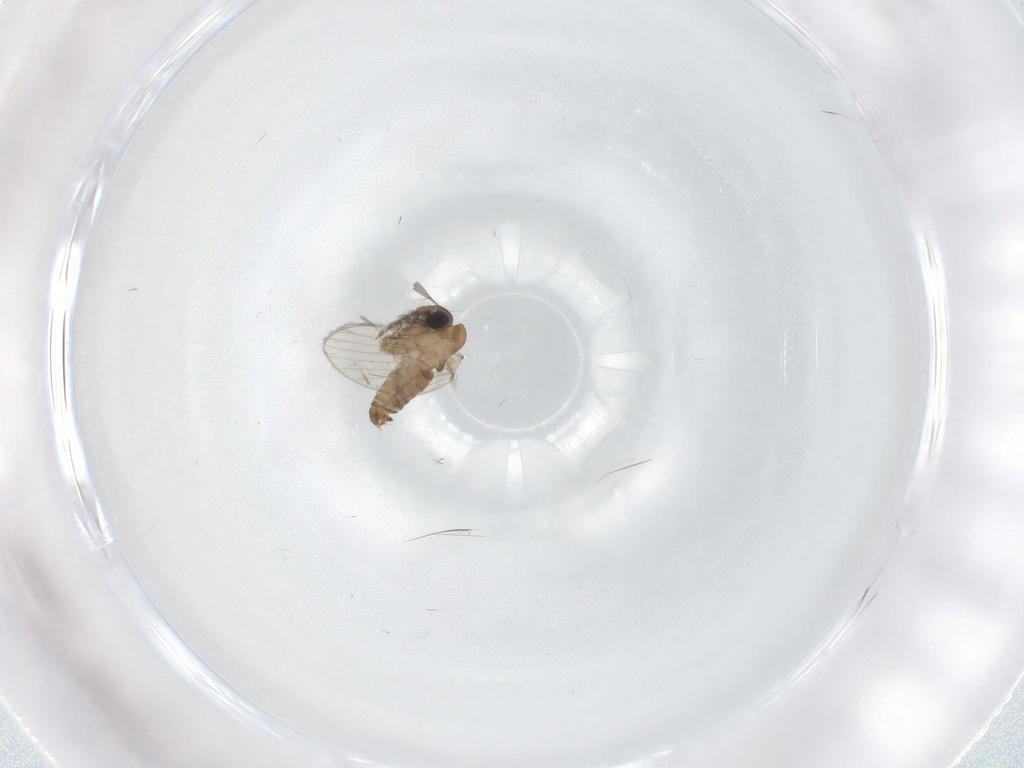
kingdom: Animalia
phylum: Arthropoda
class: Insecta
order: Diptera
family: Psychodidae
